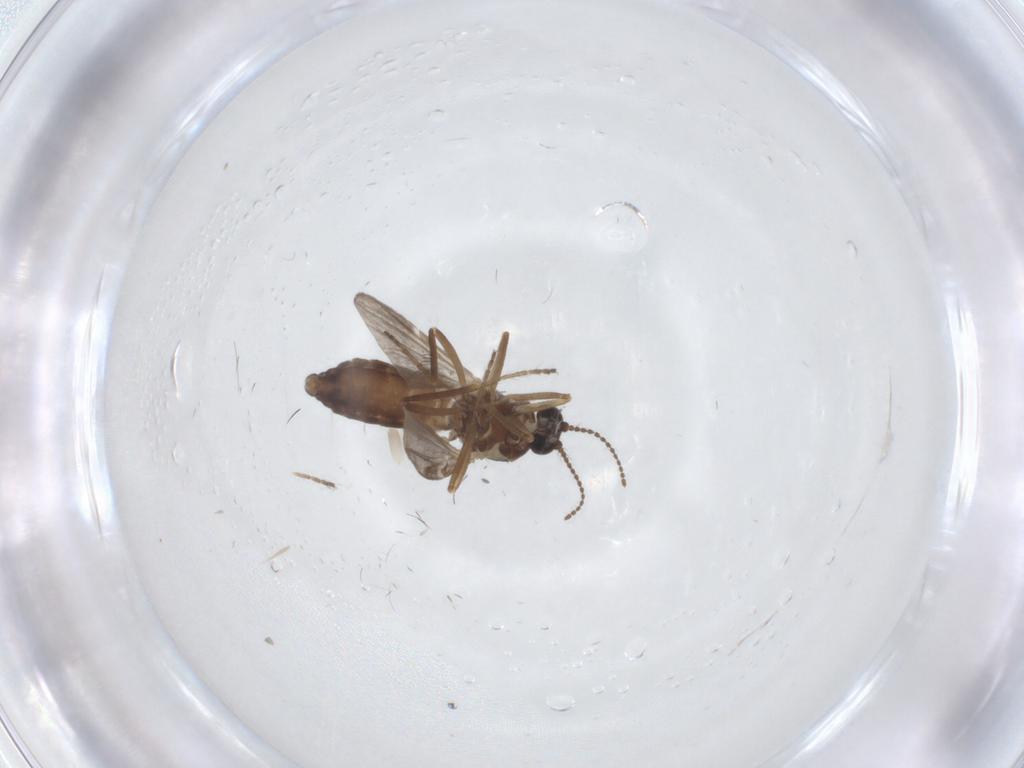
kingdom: Animalia
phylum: Arthropoda
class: Insecta
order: Diptera
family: Ceratopogonidae
